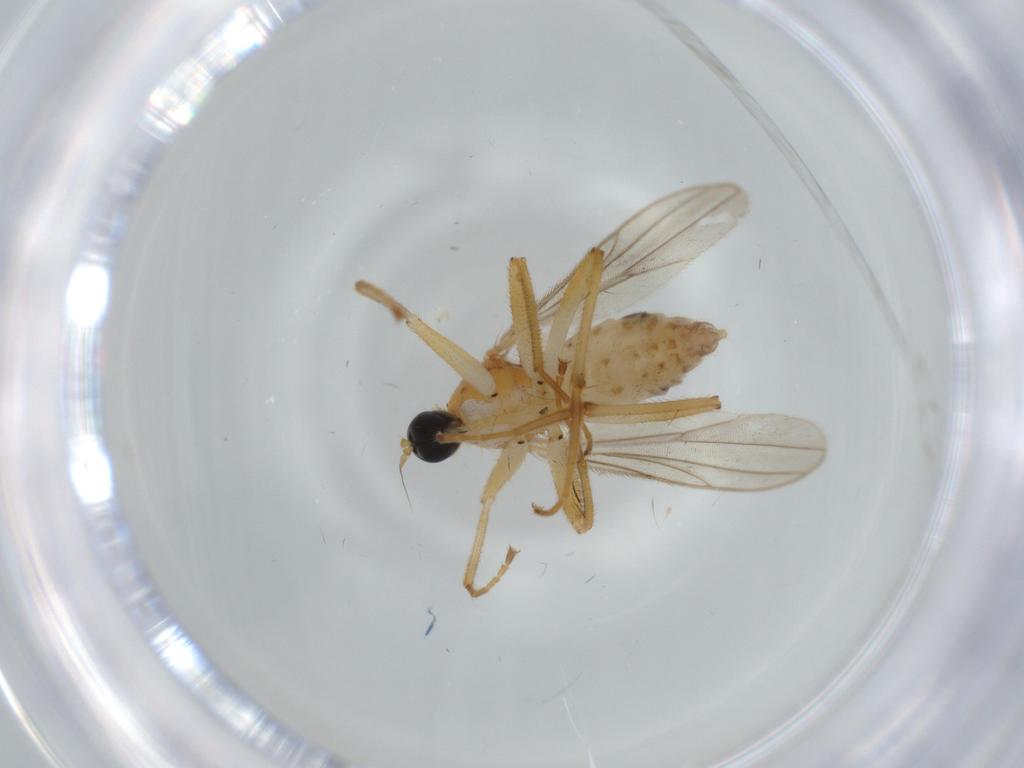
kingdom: Animalia
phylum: Arthropoda
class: Insecta
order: Diptera
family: Hybotidae
